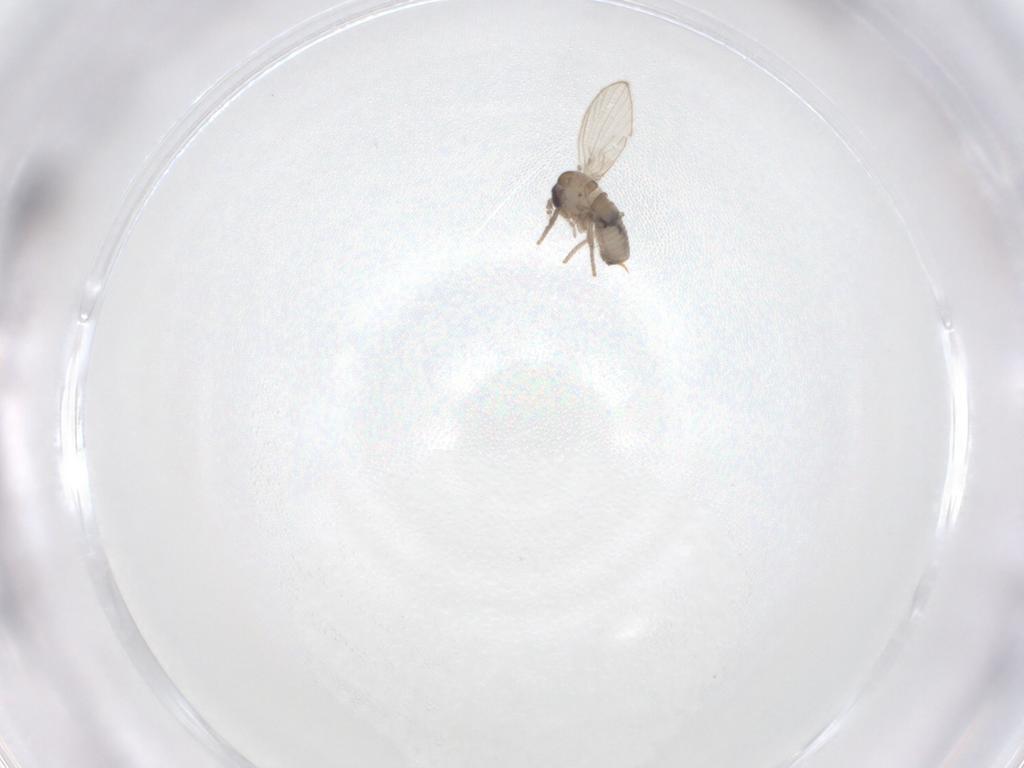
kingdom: Animalia
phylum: Arthropoda
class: Insecta
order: Diptera
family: Psychodidae
